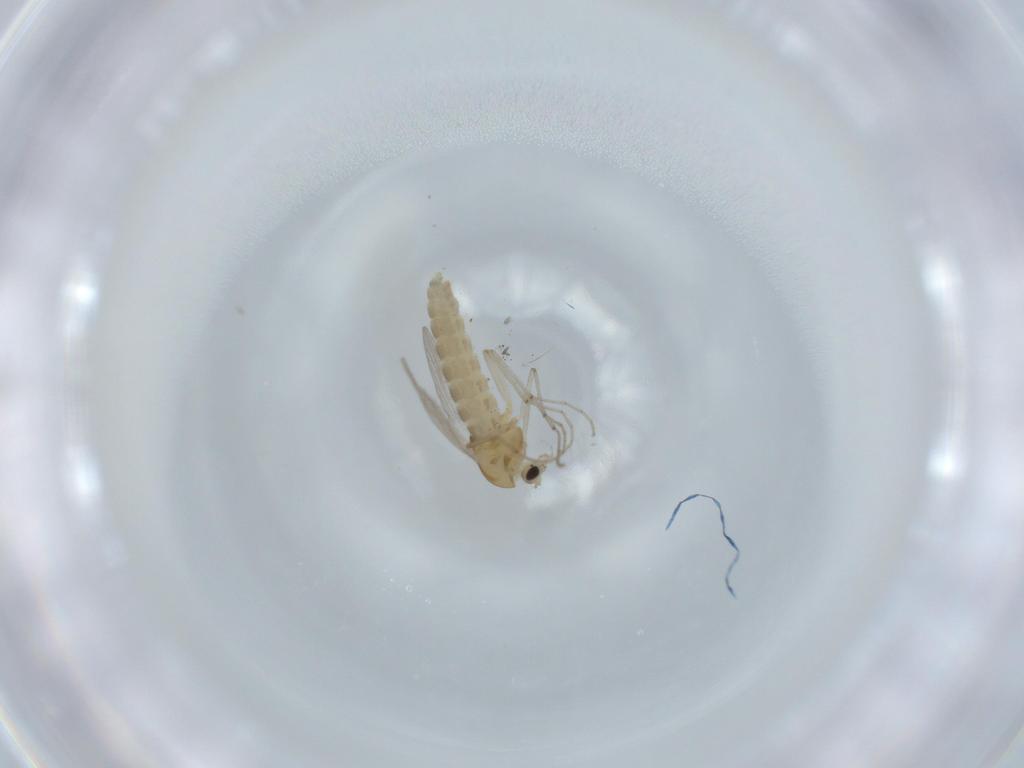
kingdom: Animalia
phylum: Arthropoda
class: Insecta
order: Diptera
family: Chironomidae
